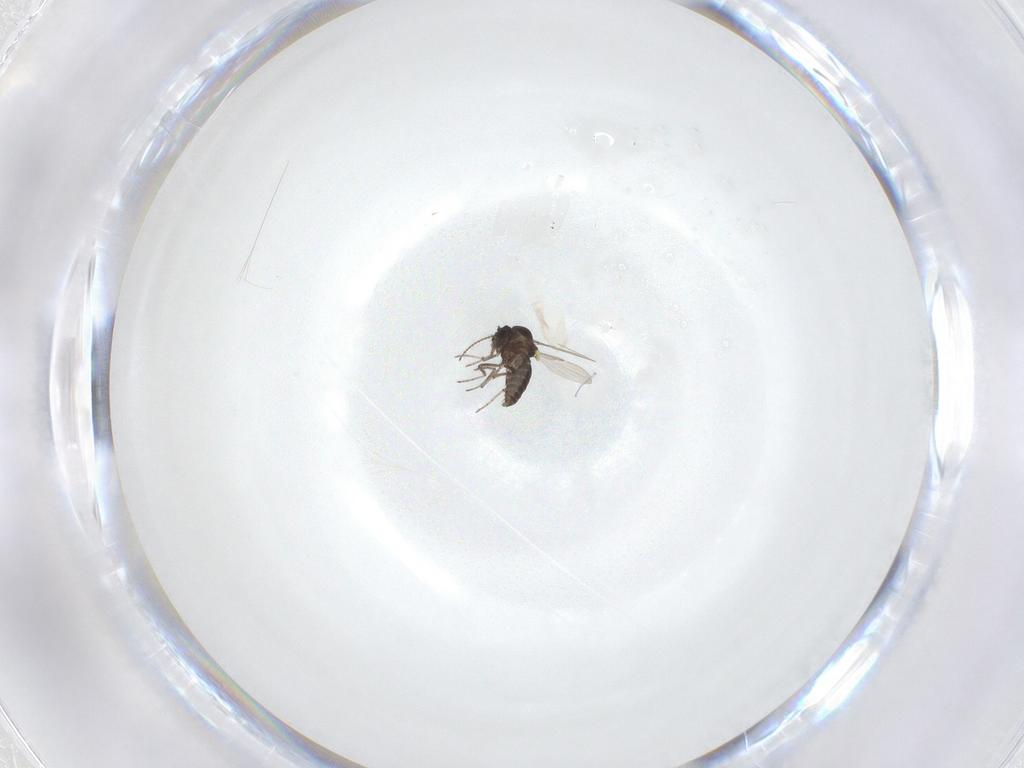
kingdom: Animalia
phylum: Arthropoda
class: Insecta
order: Diptera
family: Ceratopogonidae
